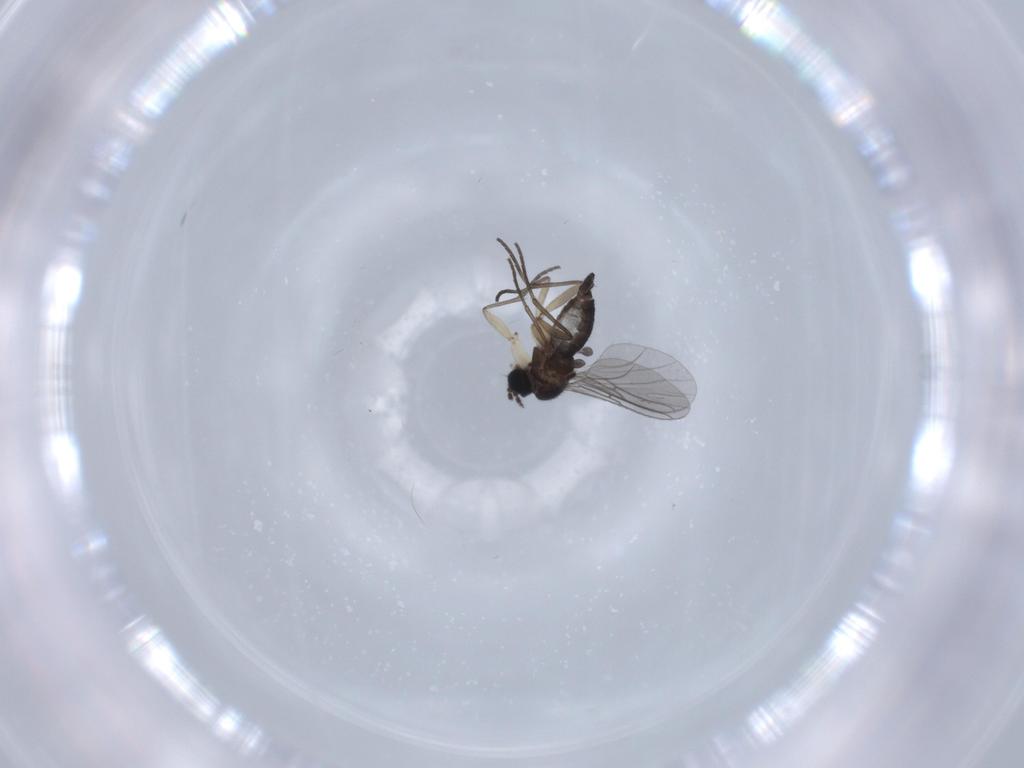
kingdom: Animalia
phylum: Arthropoda
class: Insecta
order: Diptera
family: Sciaridae
